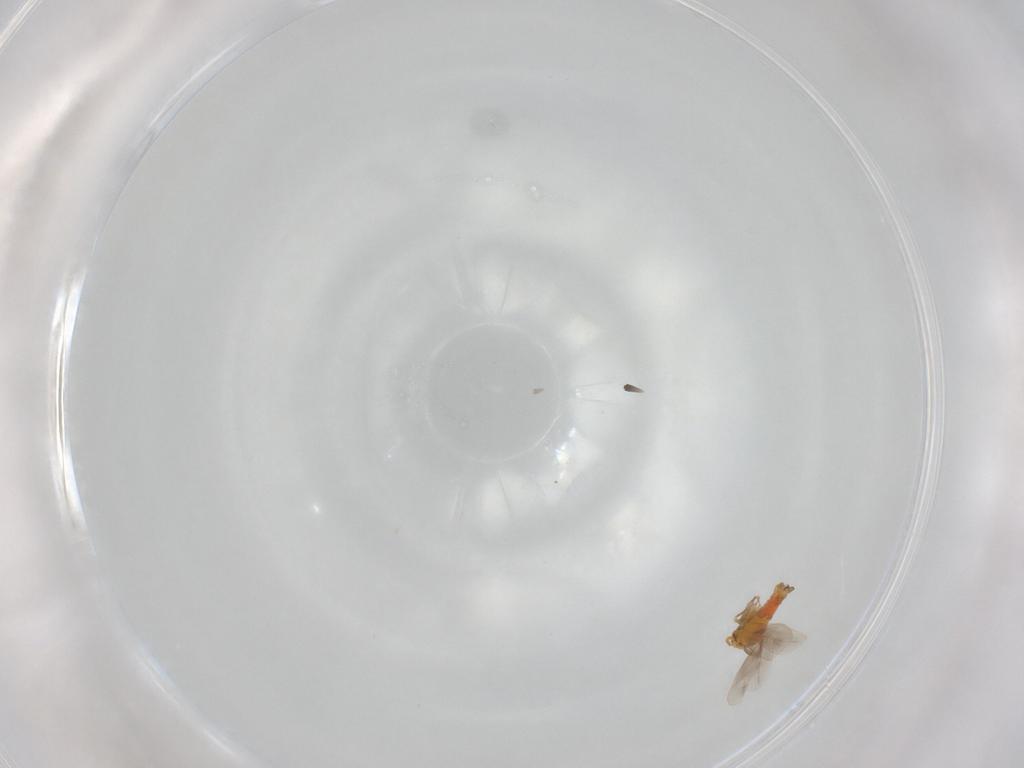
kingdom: Animalia
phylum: Arthropoda
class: Insecta
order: Hemiptera
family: Aleyrodidae
